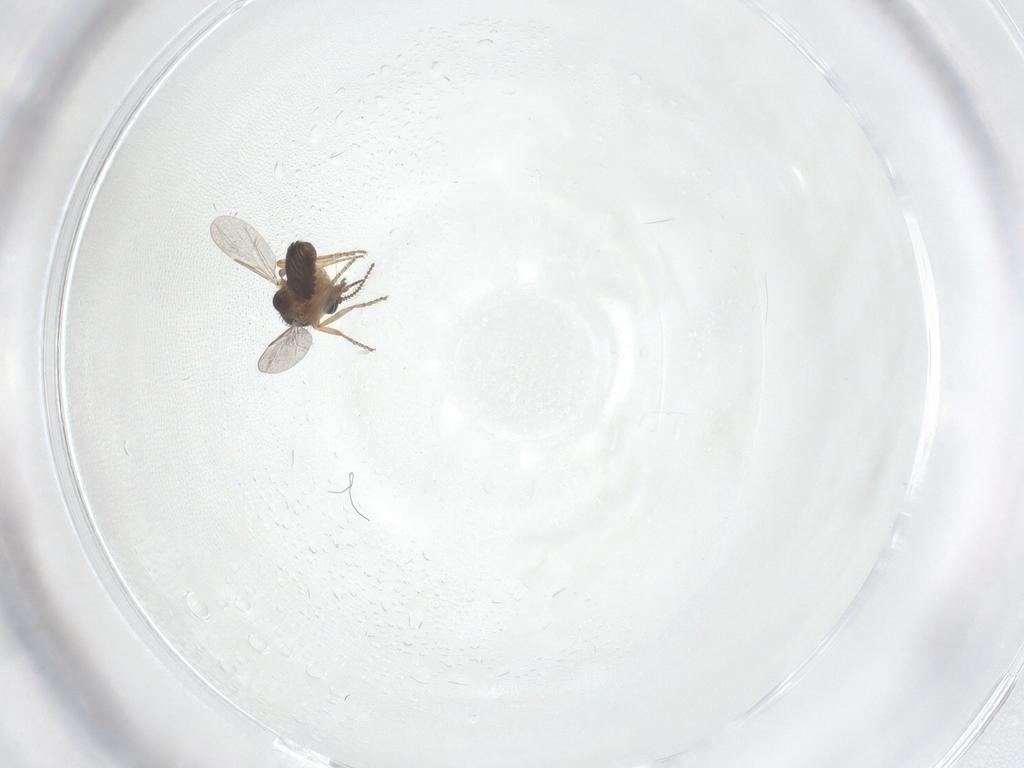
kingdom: Animalia
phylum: Arthropoda
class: Insecta
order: Diptera
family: Ceratopogonidae
